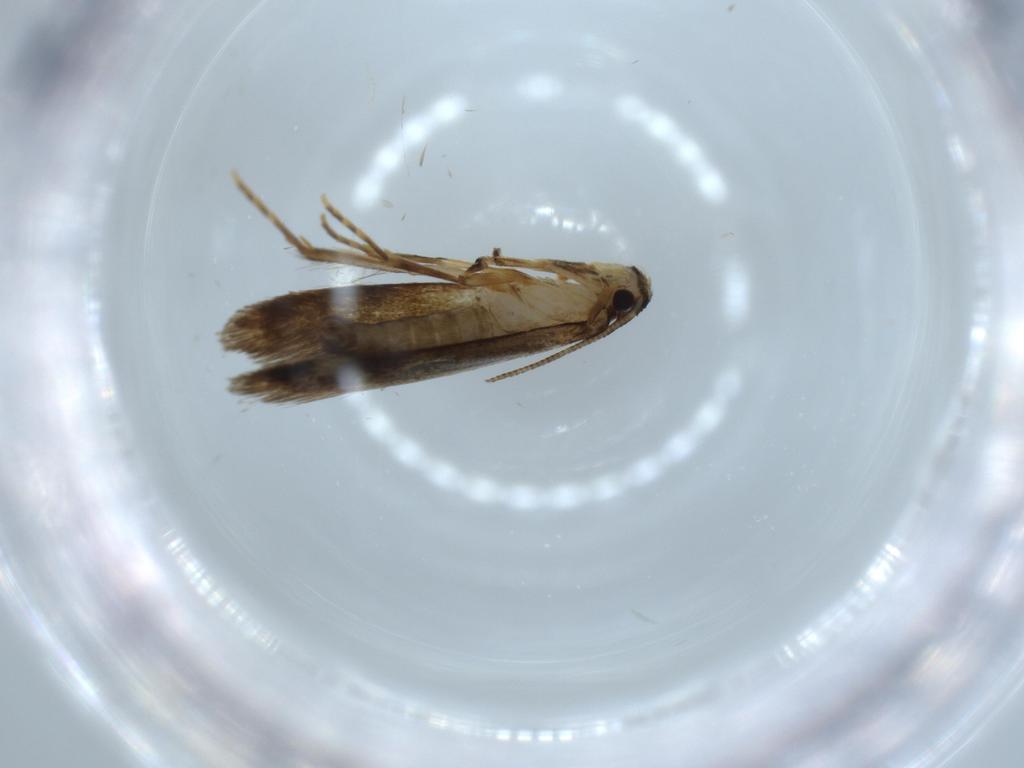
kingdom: Animalia
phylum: Arthropoda
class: Insecta
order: Lepidoptera
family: Tineidae
